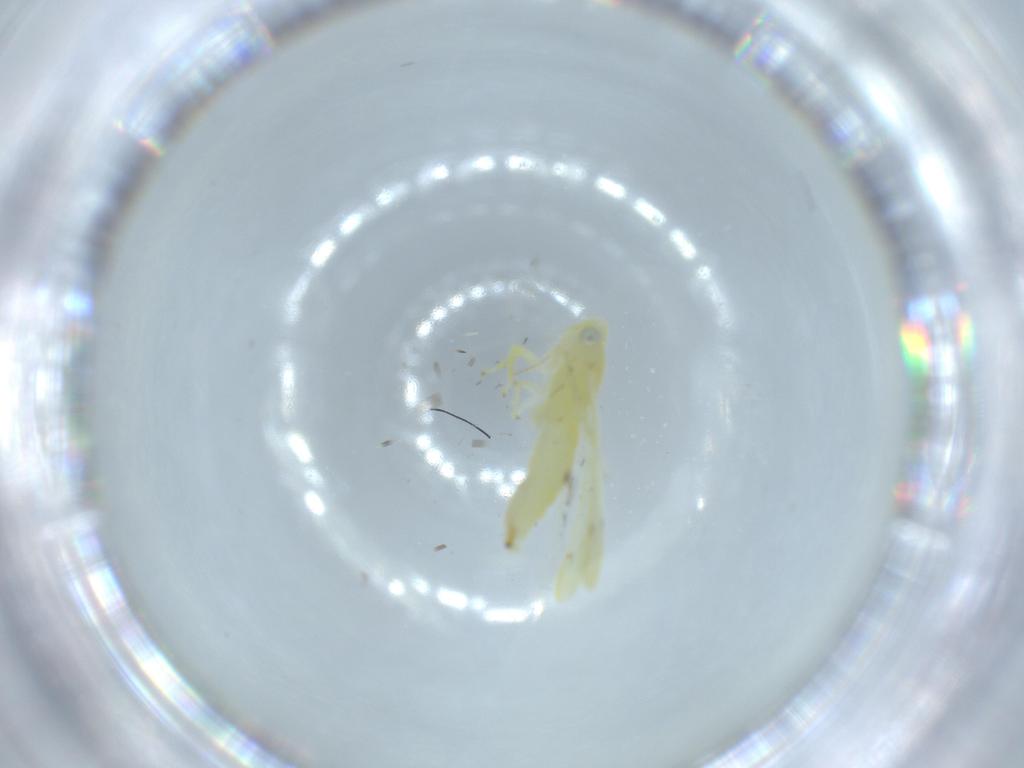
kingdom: Animalia
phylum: Arthropoda
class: Insecta
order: Hemiptera
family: Cicadellidae
